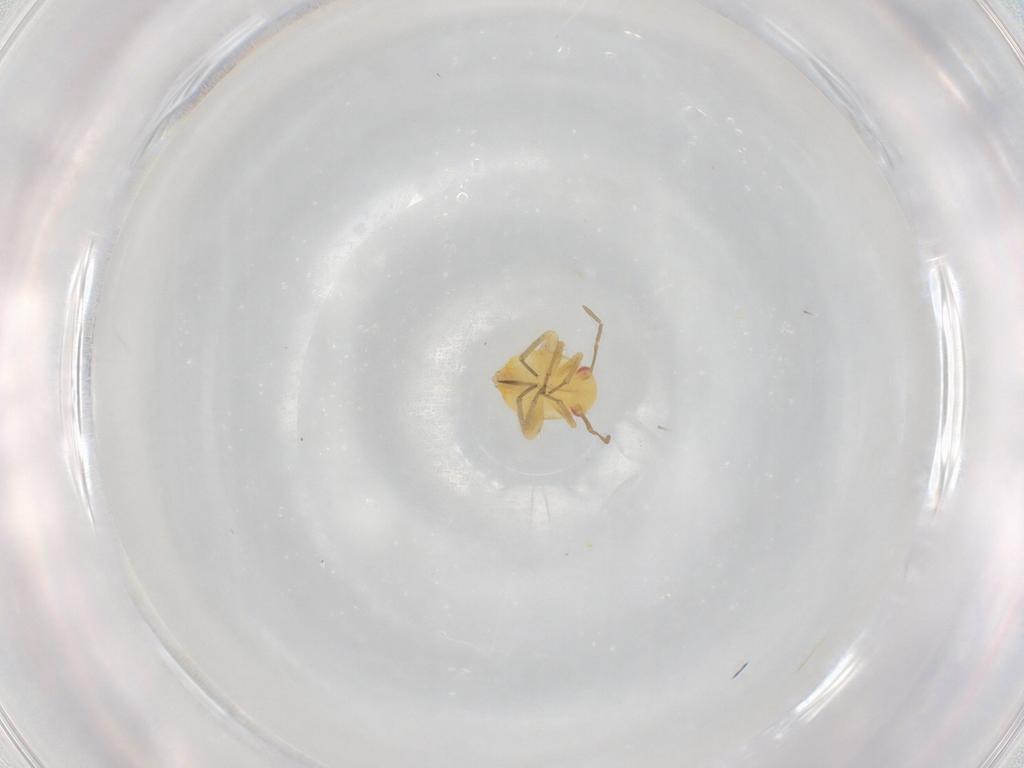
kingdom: Animalia
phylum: Arthropoda
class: Insecta
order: Hemiptera
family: Miridae
